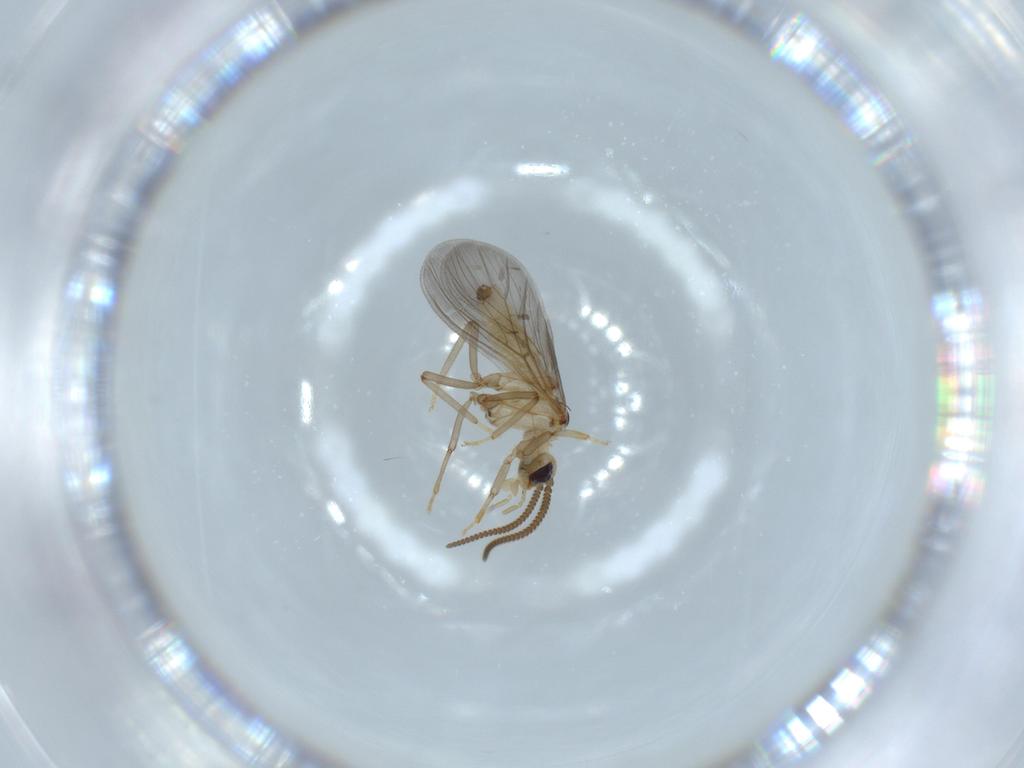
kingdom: Animalia
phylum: Arthropoda
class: Insecta
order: Neuroptera
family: Coniopterygidae
